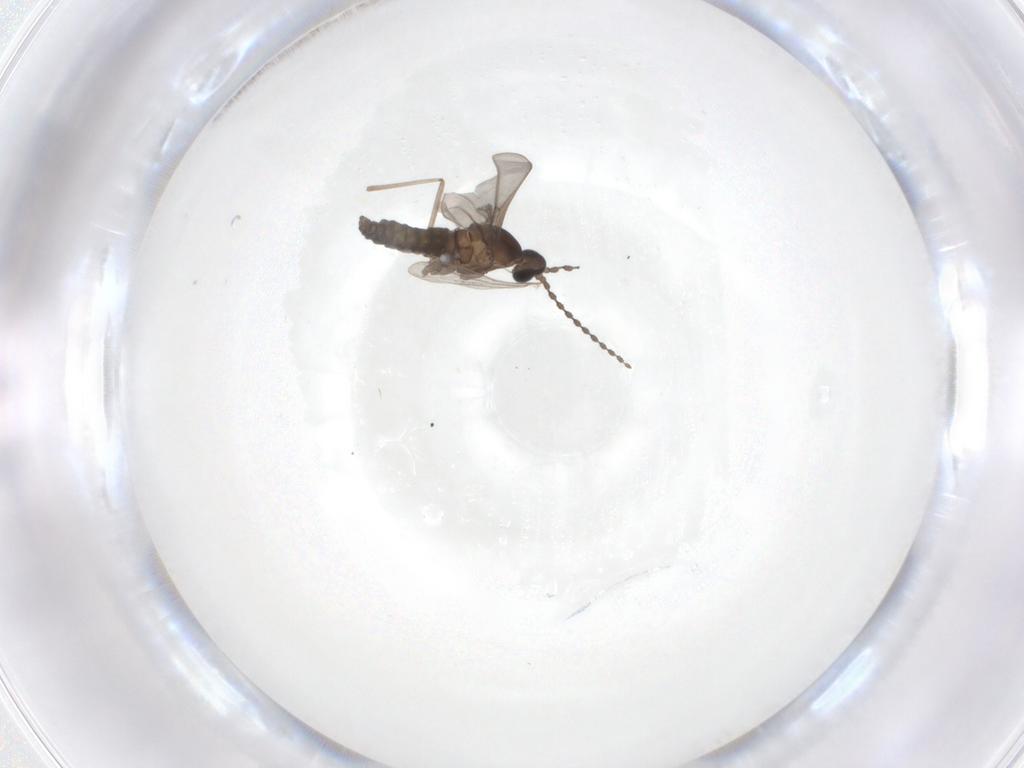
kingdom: Animalia
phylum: Arthropoda
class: Insecta
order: Diptera
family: Cecidomyiidae
